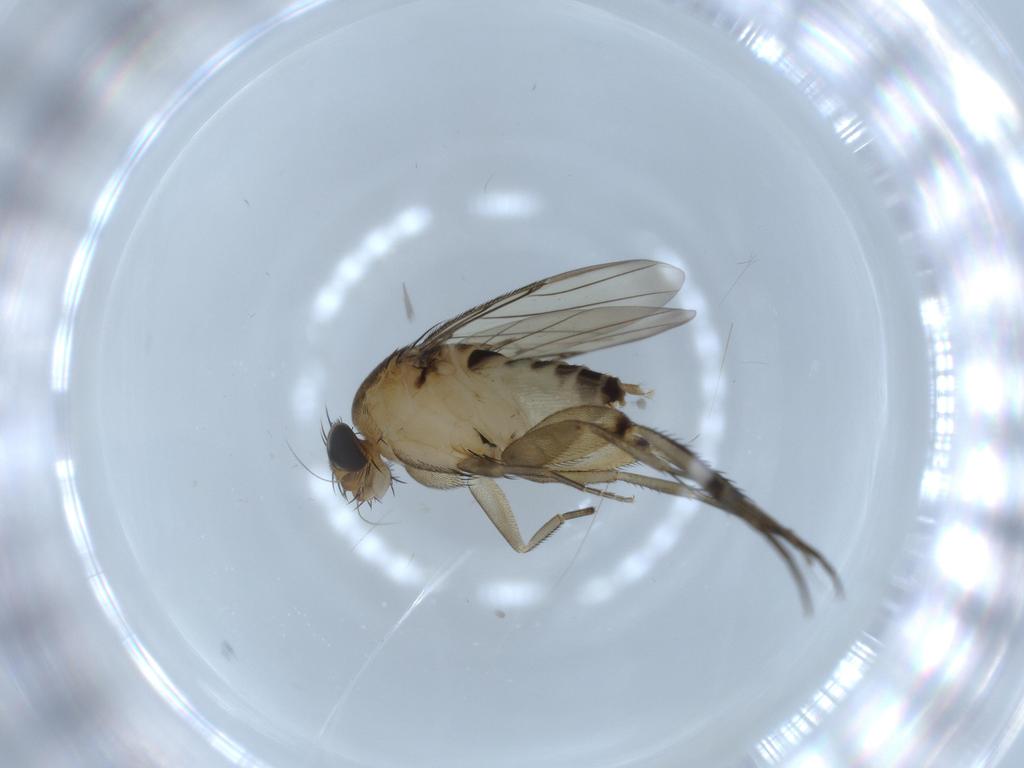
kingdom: Animalia
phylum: Arthropoda
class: Insecta
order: Diptera
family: Phoridae
